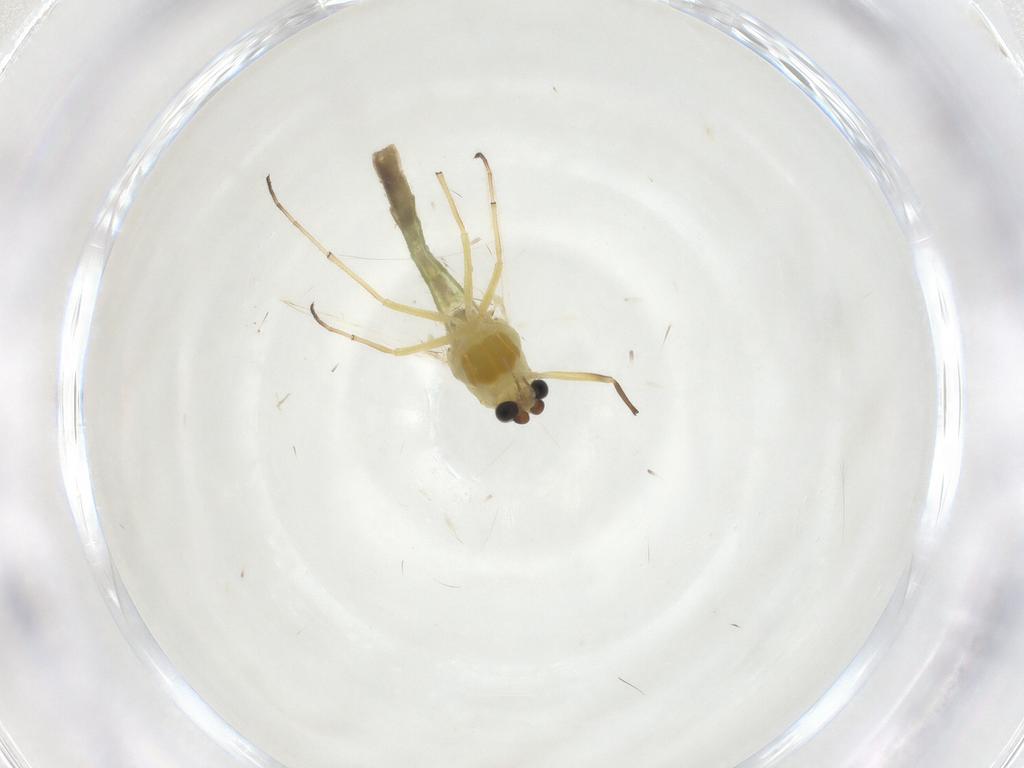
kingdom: Animalia
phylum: Arthropoda
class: Insecta
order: Diptera
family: Chironomidae
